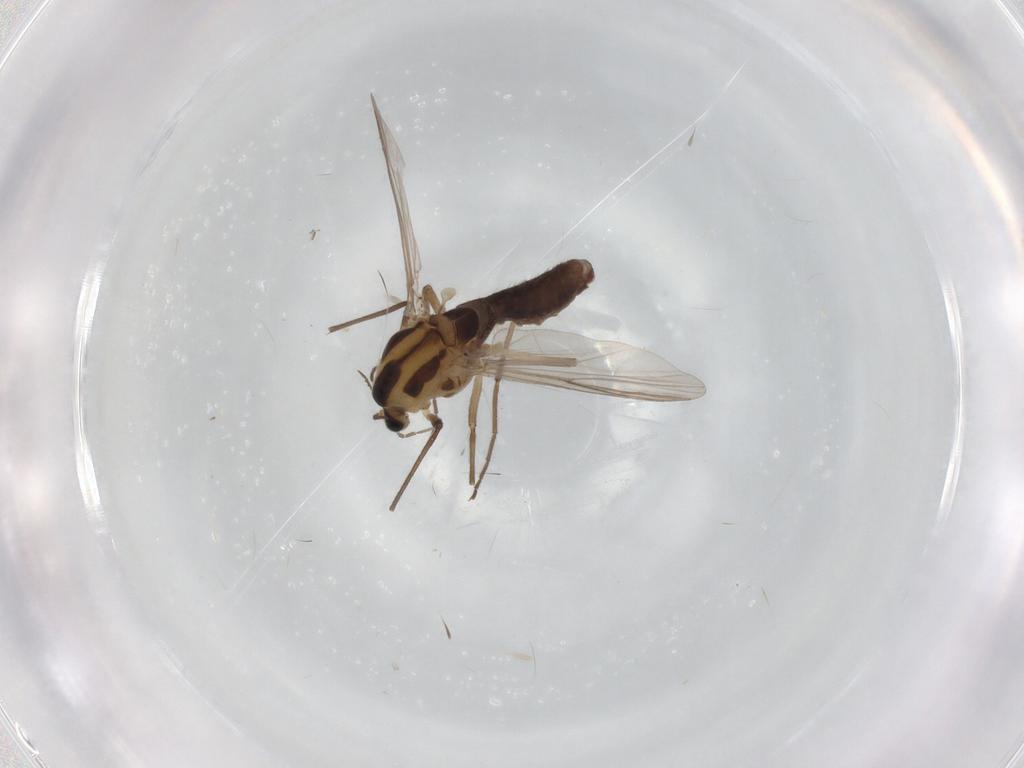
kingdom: Animalia
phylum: Arthropoda
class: Insecta
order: Diptera
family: Chironomidae
